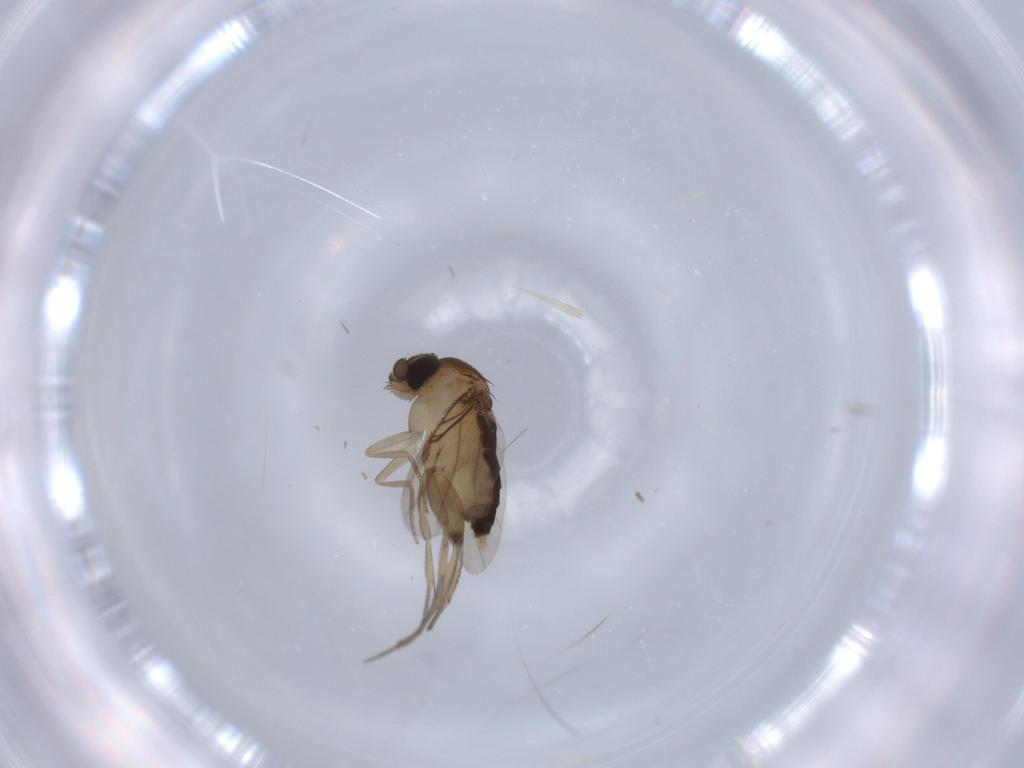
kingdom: Animalia
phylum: Arthropoda
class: Insecta
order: Diptera
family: Phoridae
